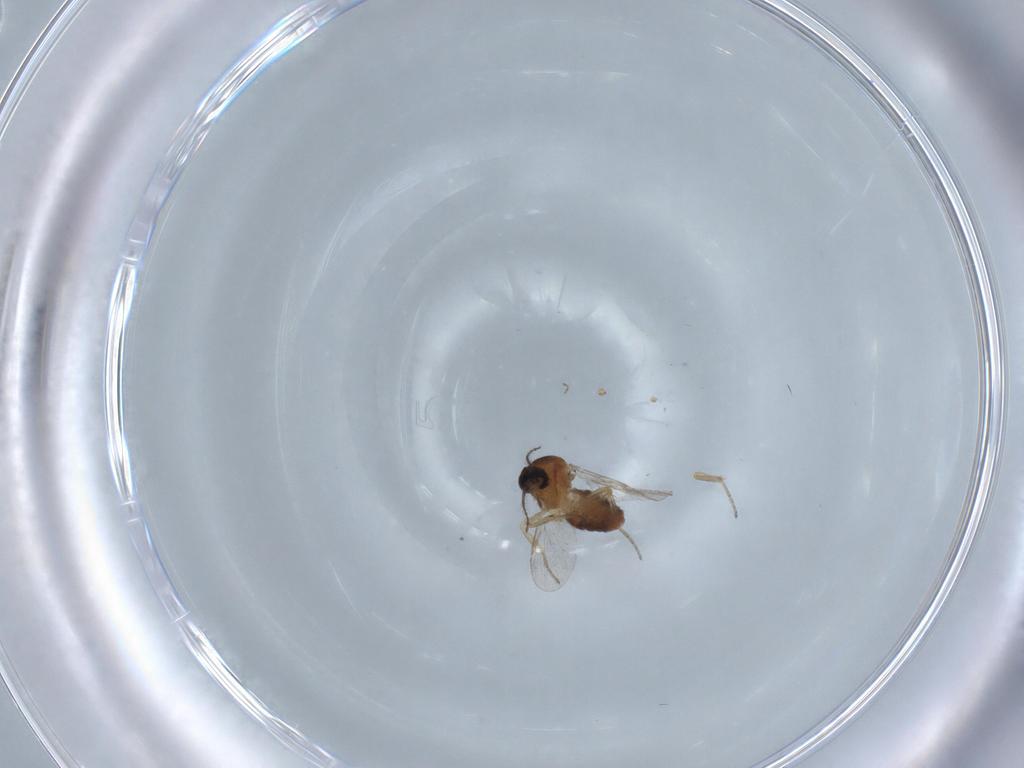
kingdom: Animalia
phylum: Arthropoda
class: Insecta
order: Diptera
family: Ceratopogonidae
